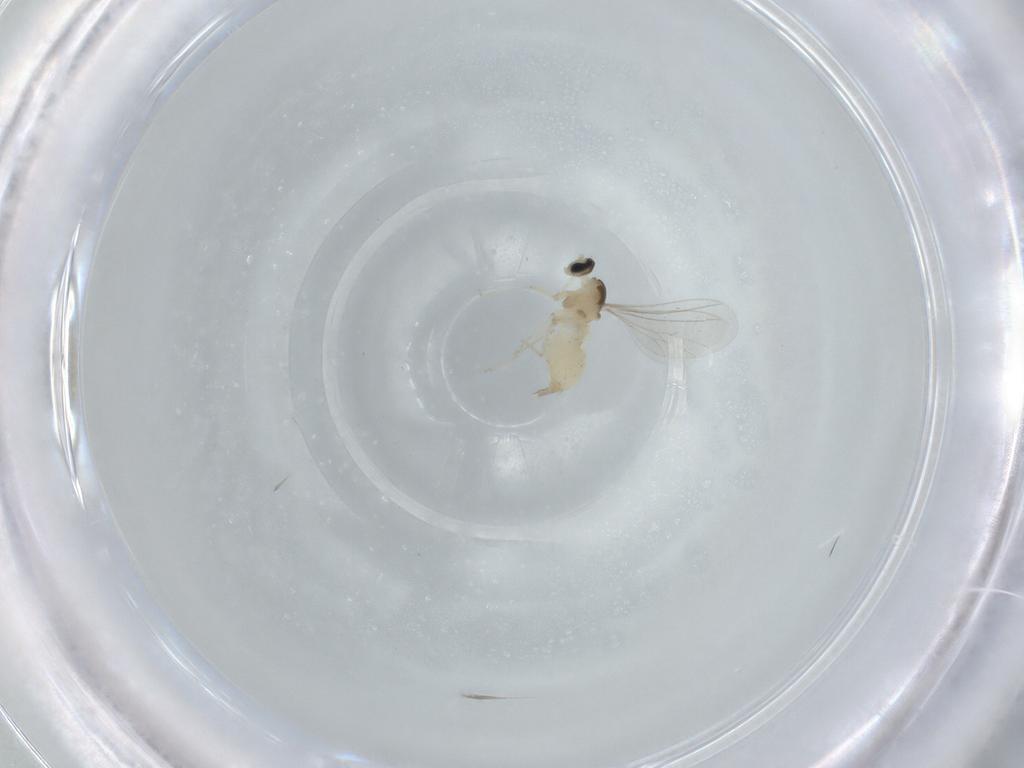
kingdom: Animalia
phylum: Arthropoda
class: Insecta
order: Diptera
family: Cecidomyiidae
